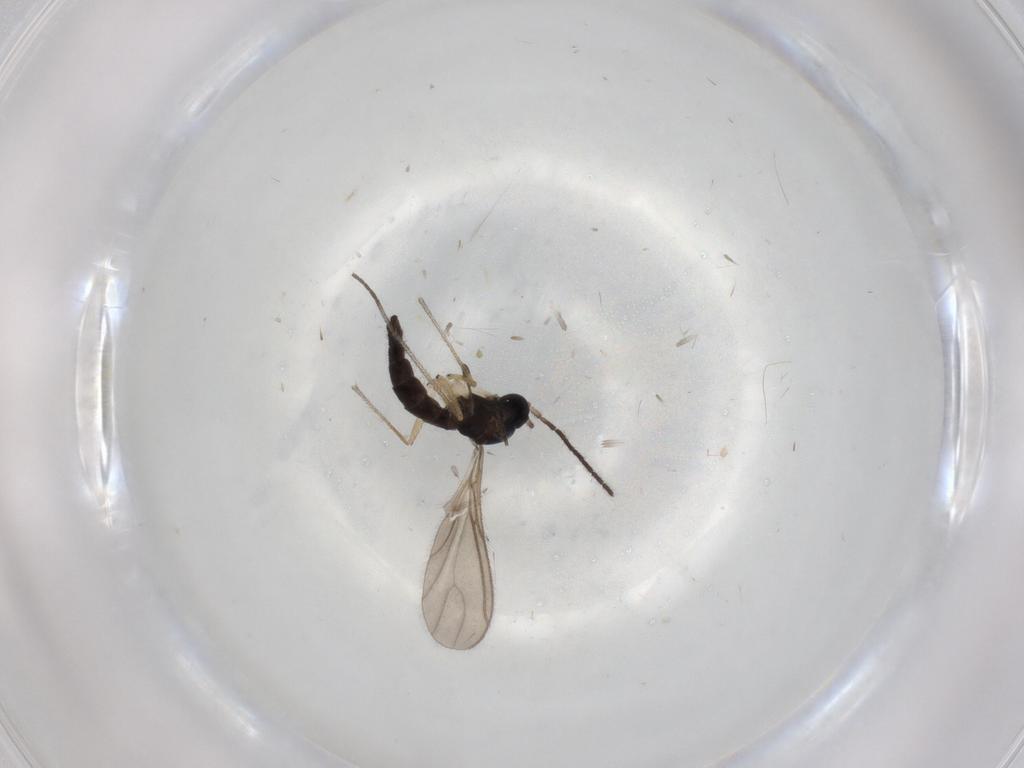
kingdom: Animalia
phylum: Arthropoda
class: Insecta
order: Diptera
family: Sciaridae
